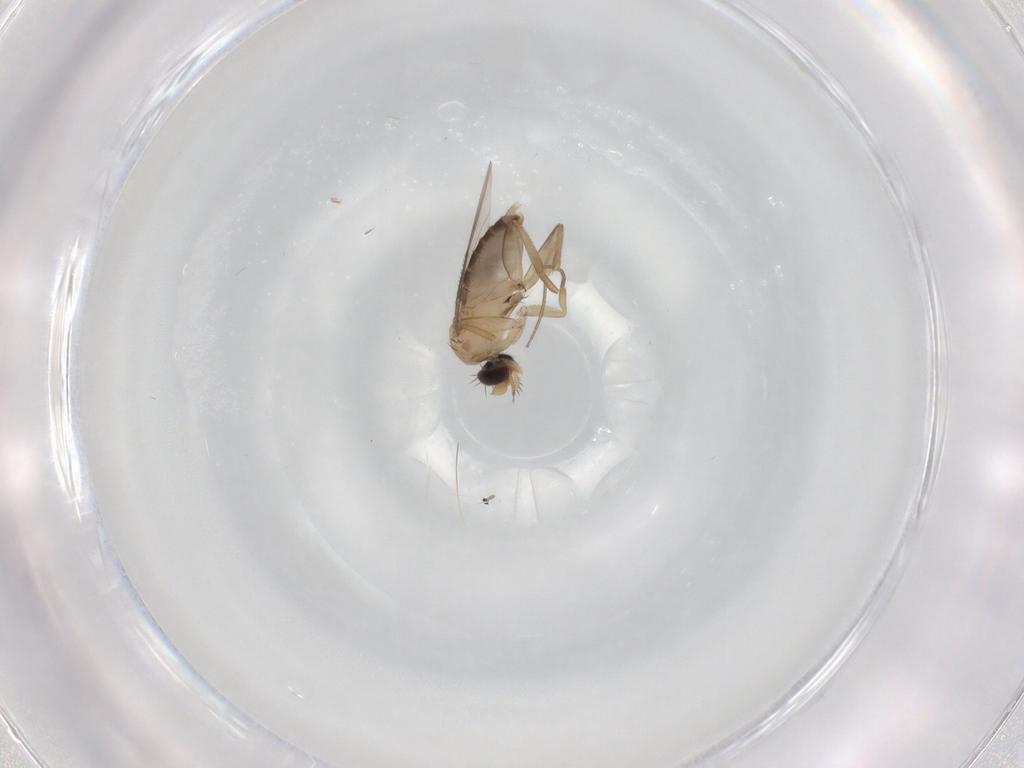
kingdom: Animalia
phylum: Arthropoda
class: Insecta
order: Diptera
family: Phoridae
